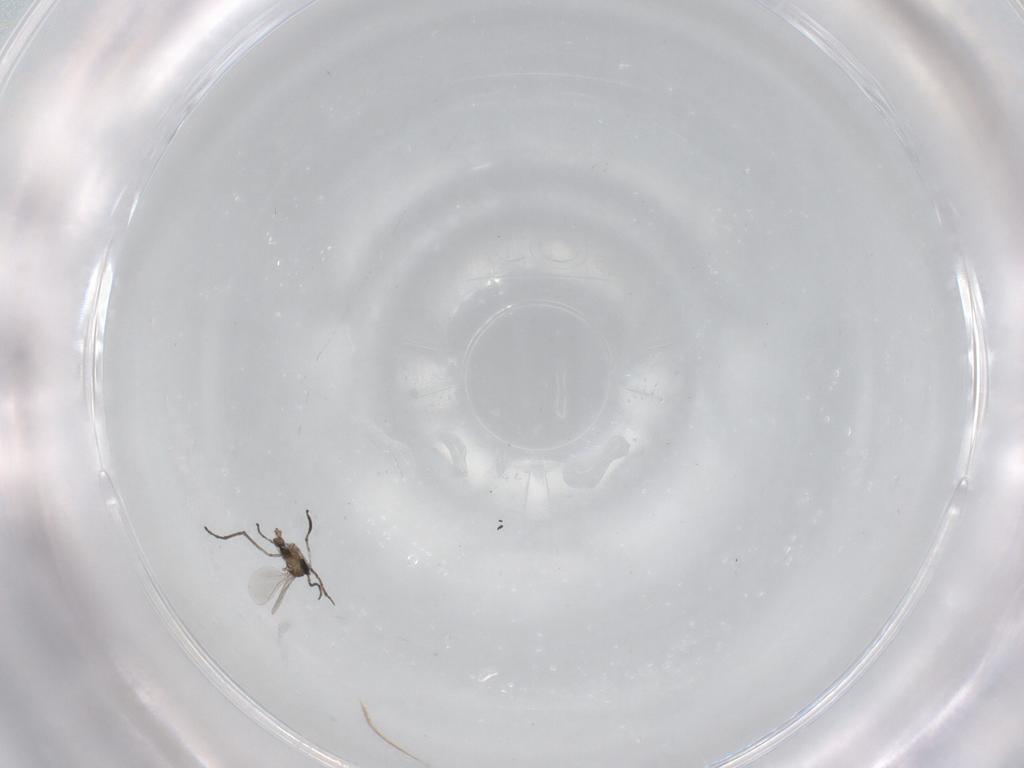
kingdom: Animalia
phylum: Arthropoda
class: Insecta
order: Diptera
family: Cecidomyiidae
